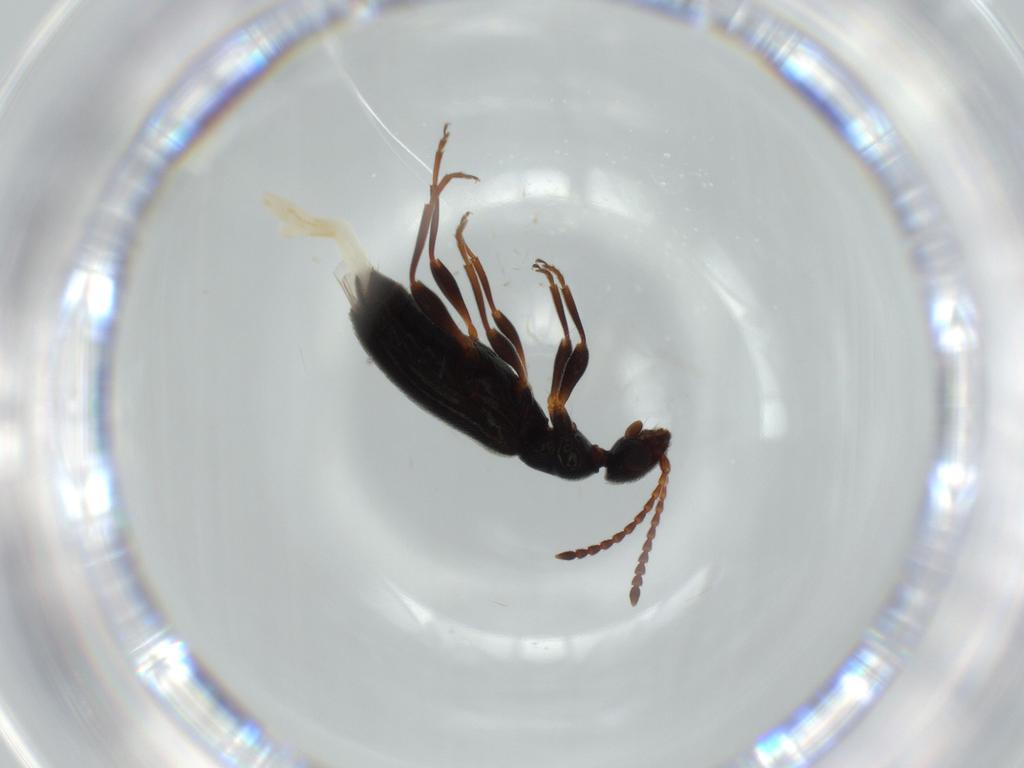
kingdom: Animalia
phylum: Arthropoda
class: Insecta
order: Coleoptera
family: Anthicidae
